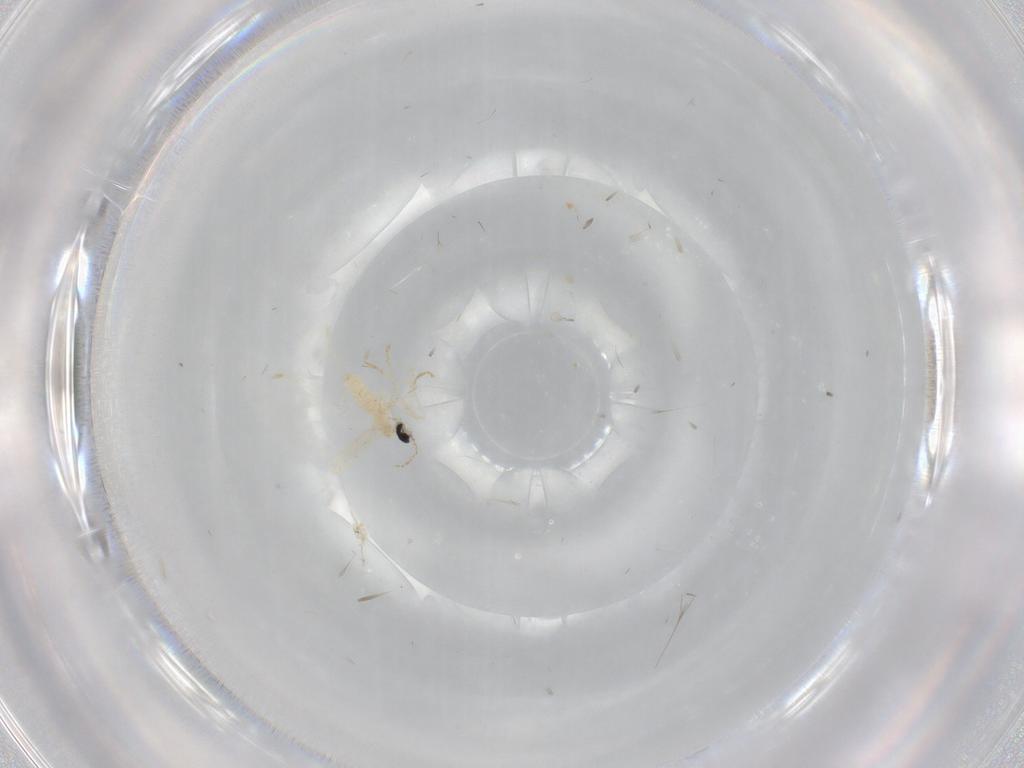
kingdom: Animalia
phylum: Arthropoda
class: Insecta
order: Diptera
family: Cecidomyiidae
